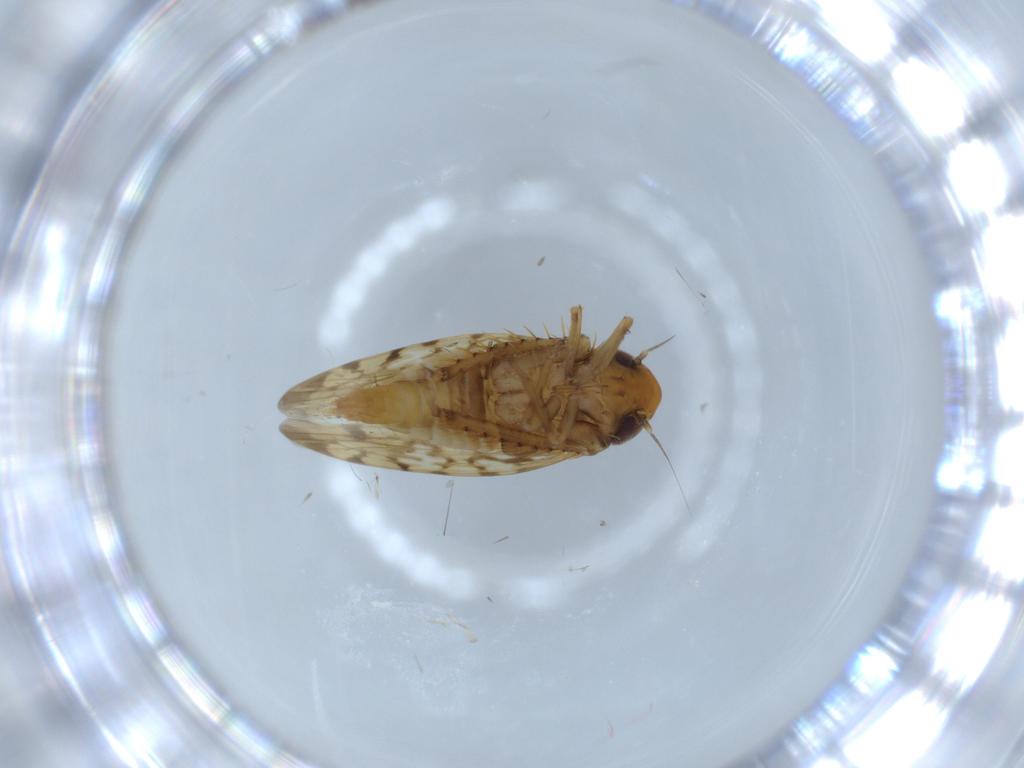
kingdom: Animalia
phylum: Arthropoda
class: Insecta
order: Hemiptera
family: Cicadellidae
